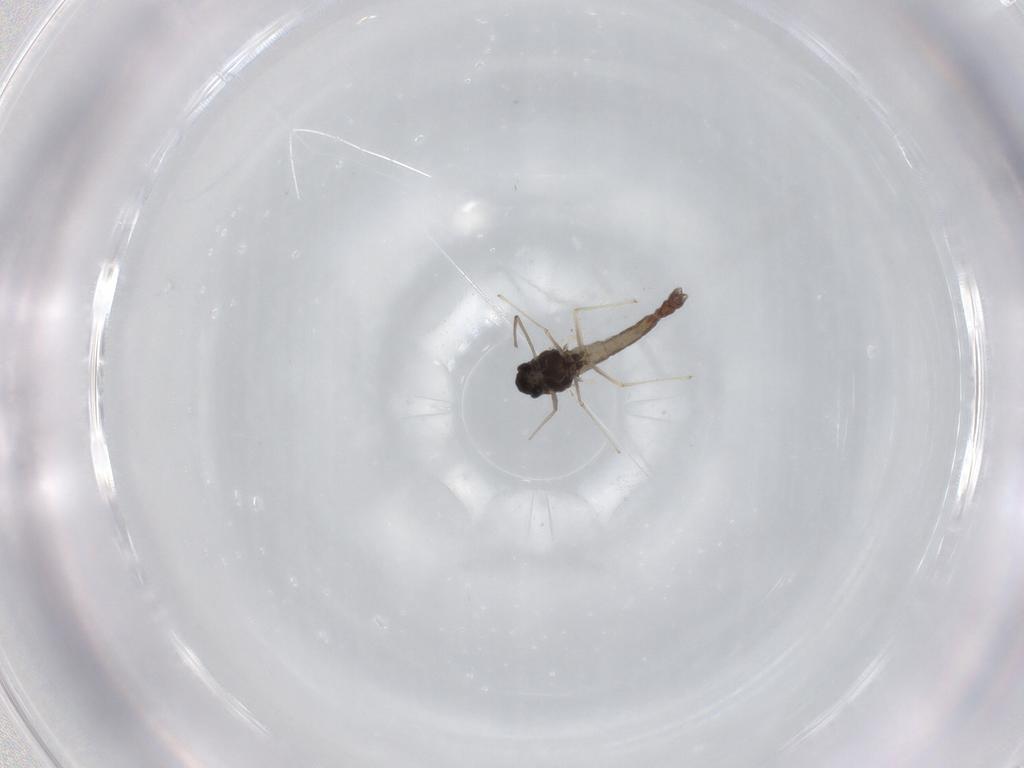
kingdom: Animalia
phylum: Arthropoda
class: Insecta
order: Diptera
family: Chironomidae
